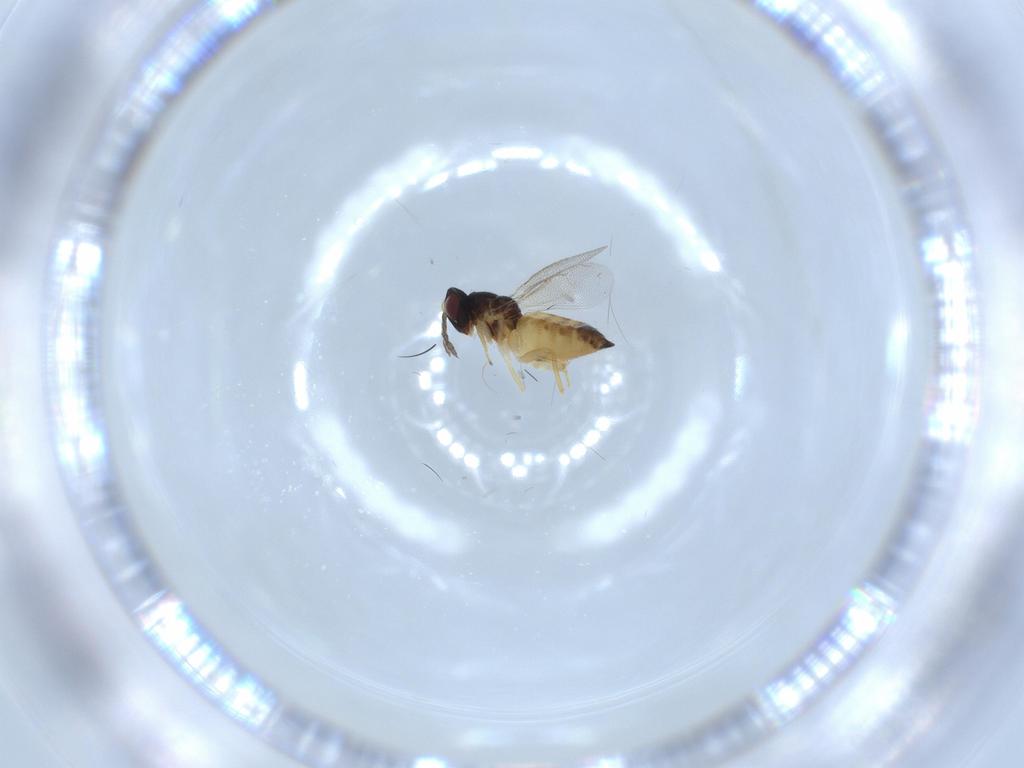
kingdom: Animalia
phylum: Arthropoda
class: Insecta
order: Hymenoptera
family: Eulophidae
